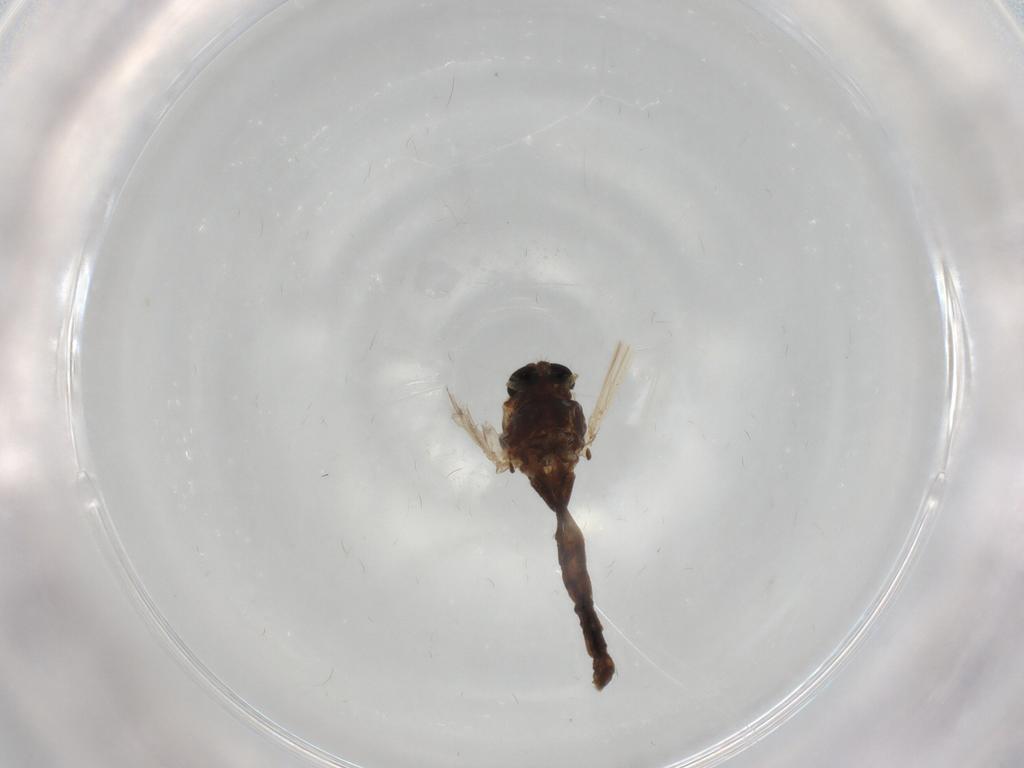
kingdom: Animalia
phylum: Arthropoda
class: Insecta
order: Diptera
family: Chironomidae
